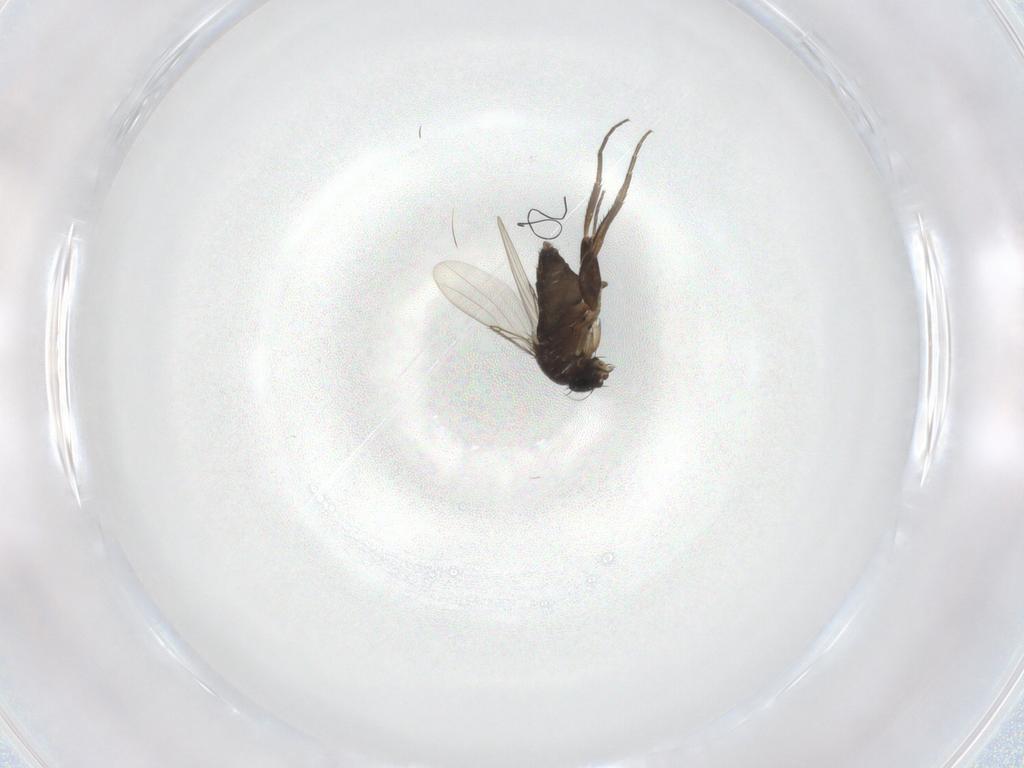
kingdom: Animalia
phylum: Arthropoda
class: Insecta
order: Diptera
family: Phoridae
